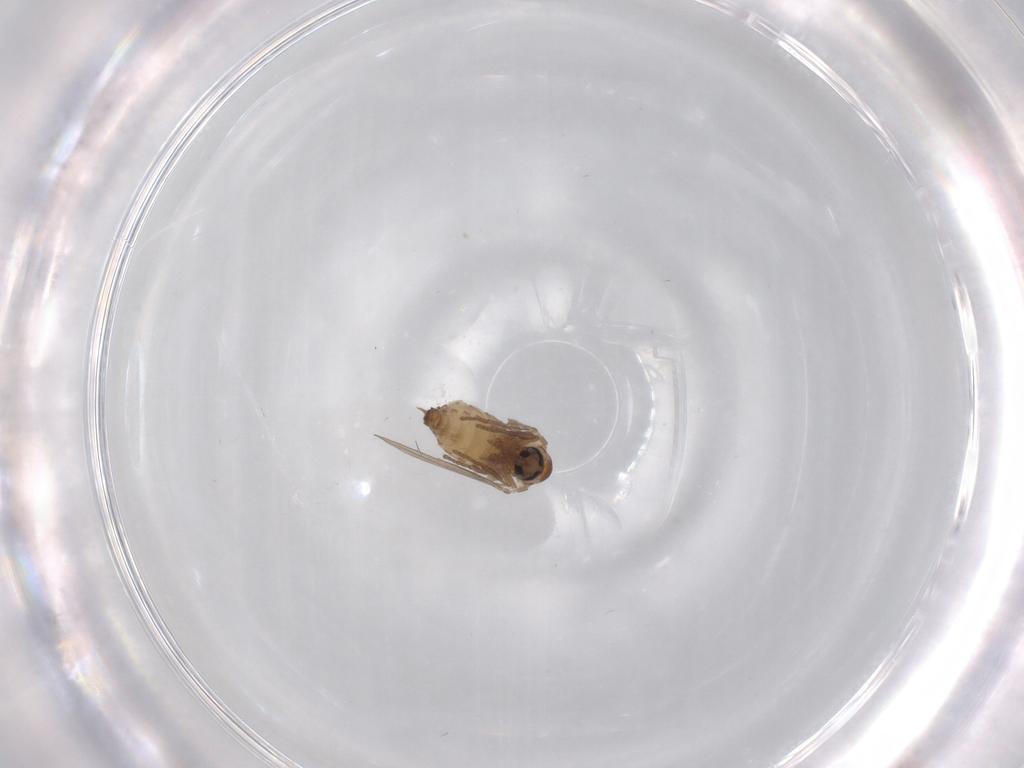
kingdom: Animalia
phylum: Arthropoda
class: Insecta
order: Diptera
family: Psychodidae
